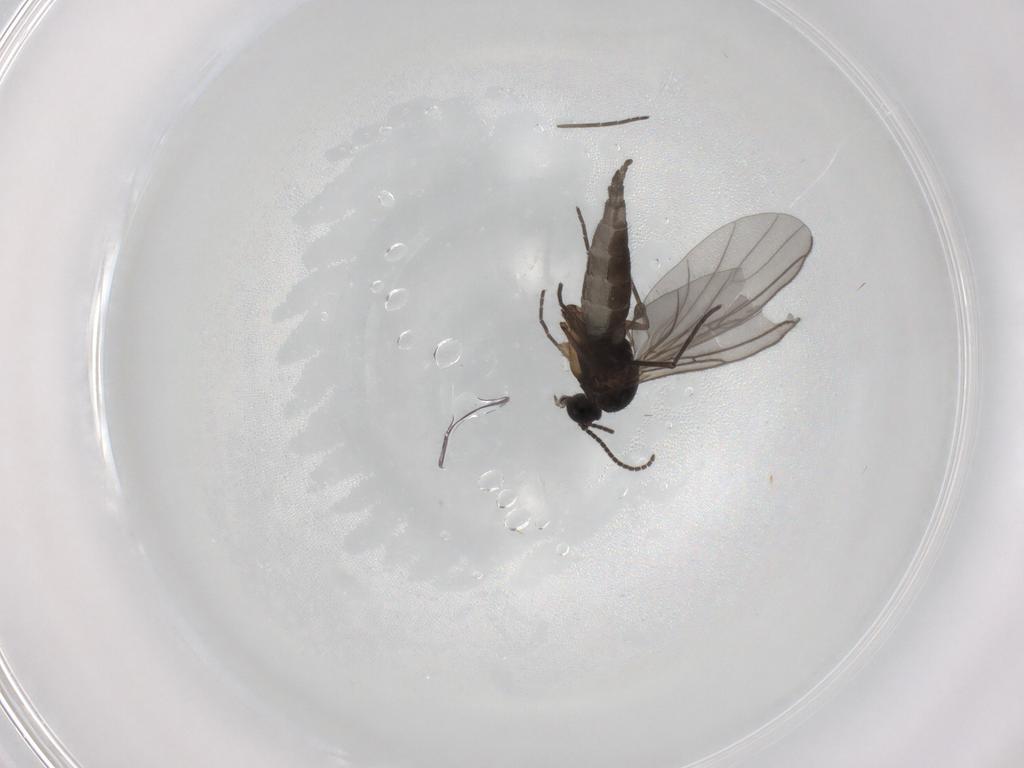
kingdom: Animalia
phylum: Arthropoda
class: Insecta
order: Diptera
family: Sciaridae
